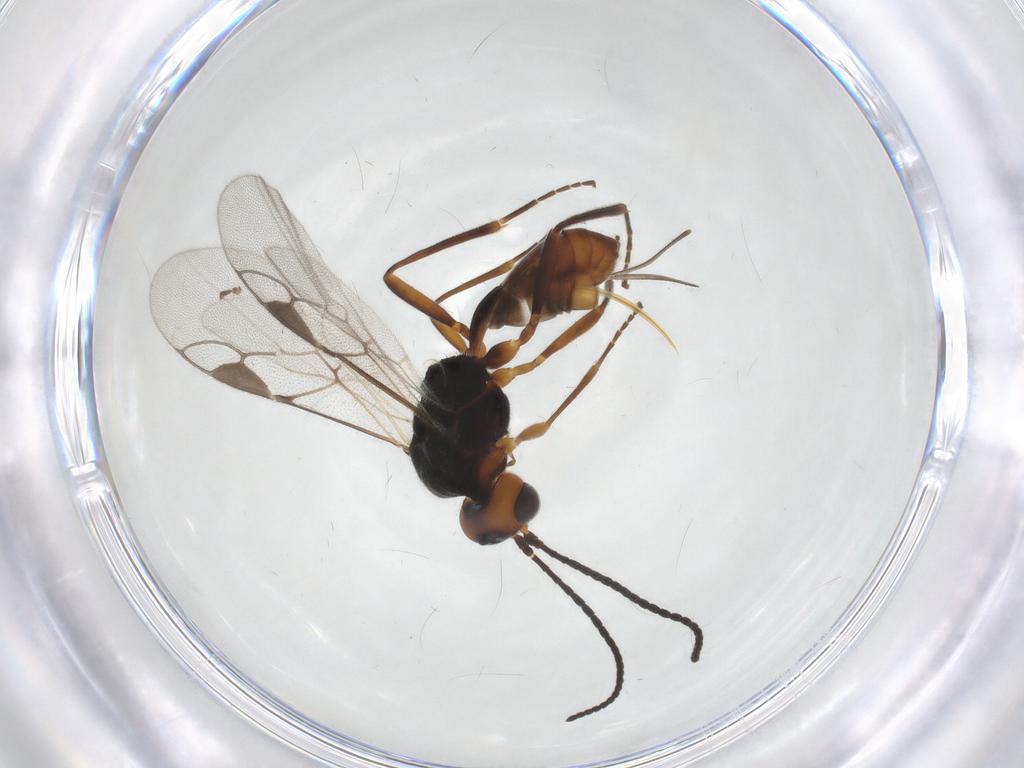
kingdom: Animalia
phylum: Arthropoda
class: Insecta
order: Hymenoptera
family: Braconidae
